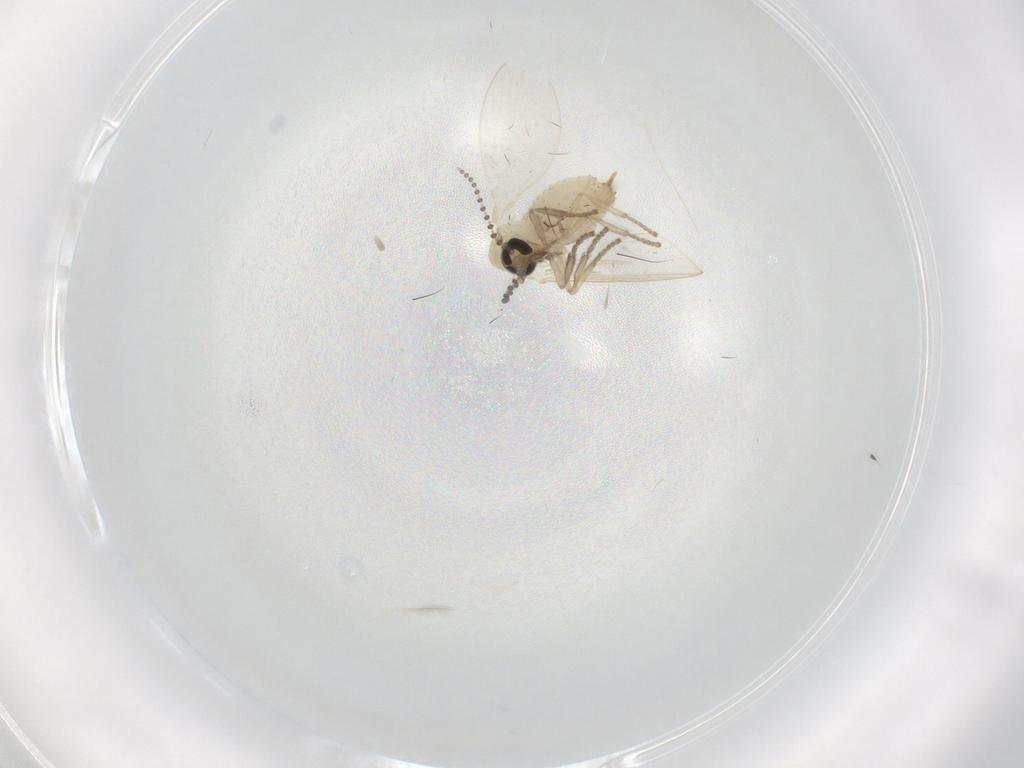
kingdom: Animalia
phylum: Arthropoda
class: Insecta
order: Diptera
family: Psychodidae
